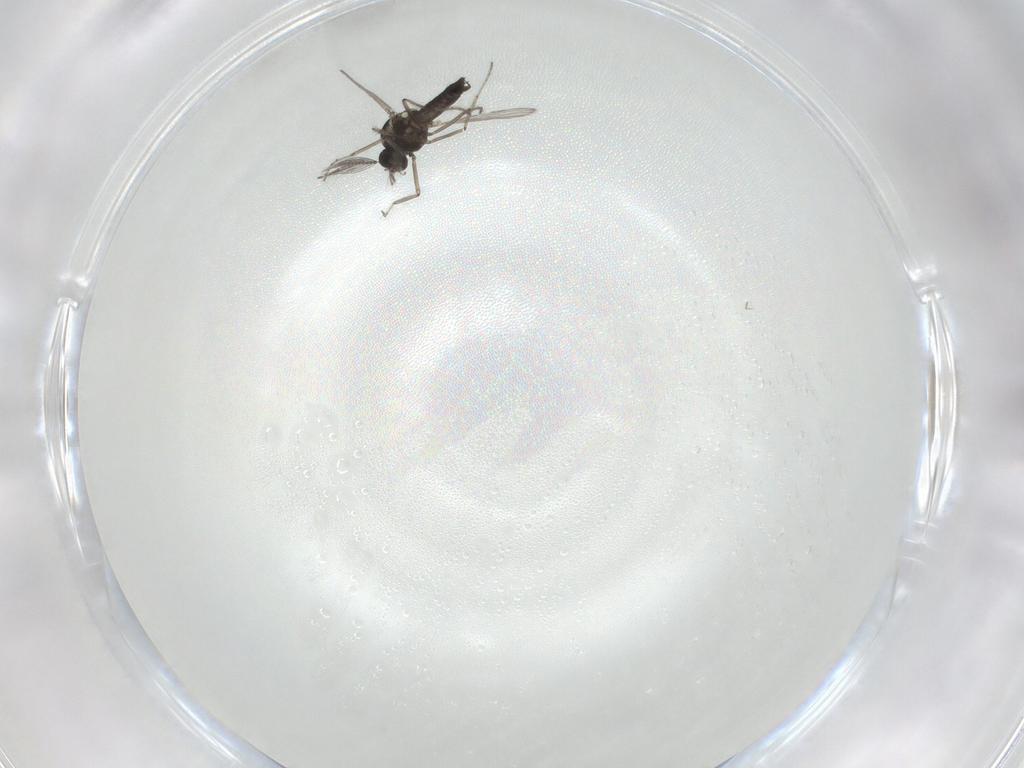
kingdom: Animalia
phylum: Arthropoda
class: Insecta
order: Diptera
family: Ceratopogonidae
